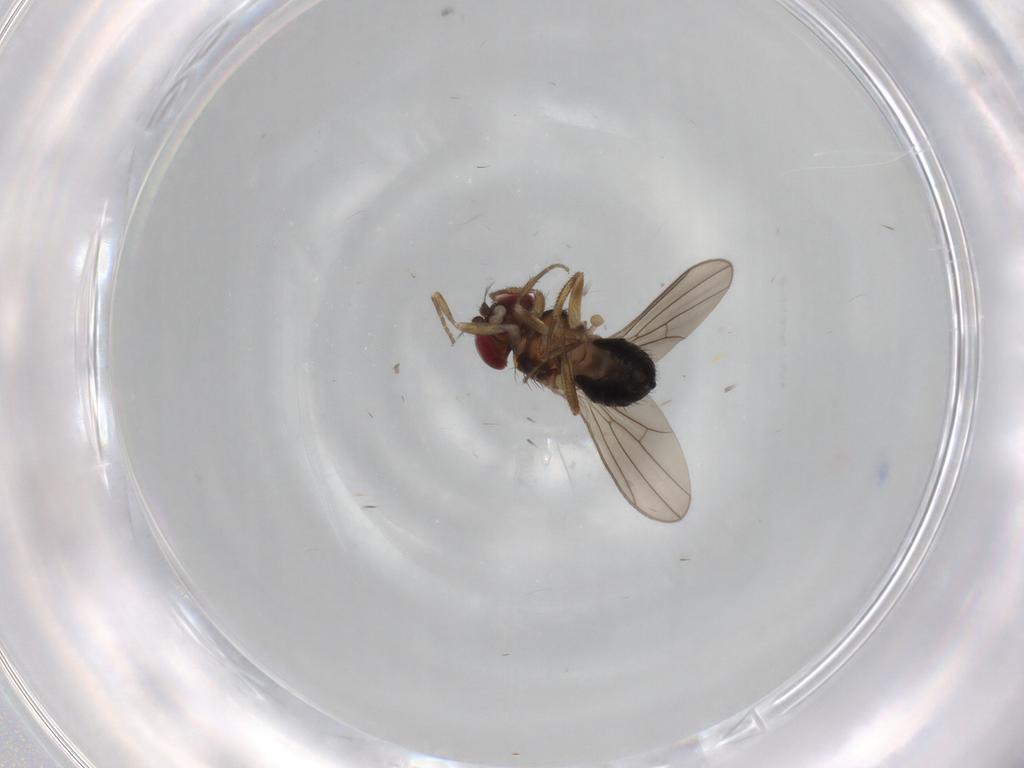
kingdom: Animalia
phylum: Arthropoda
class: Insecta
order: Diptera
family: Drosophilidae
